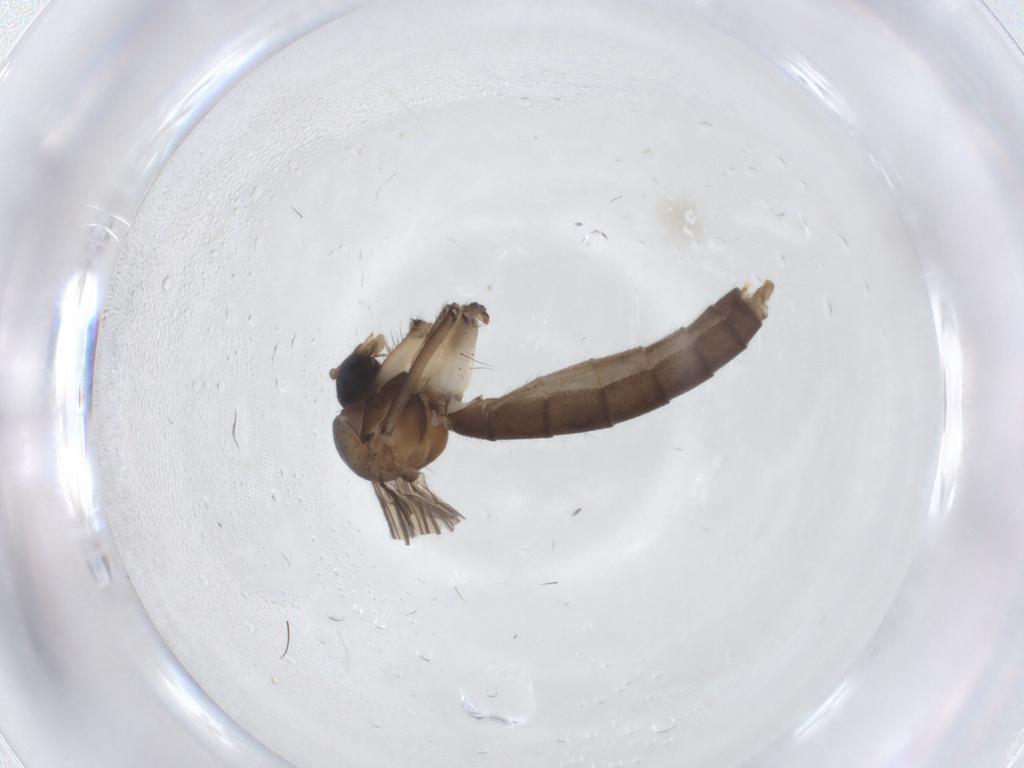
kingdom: Animalia
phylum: Arthropoda
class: Insecta
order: Diptera
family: Mycetophilidae
